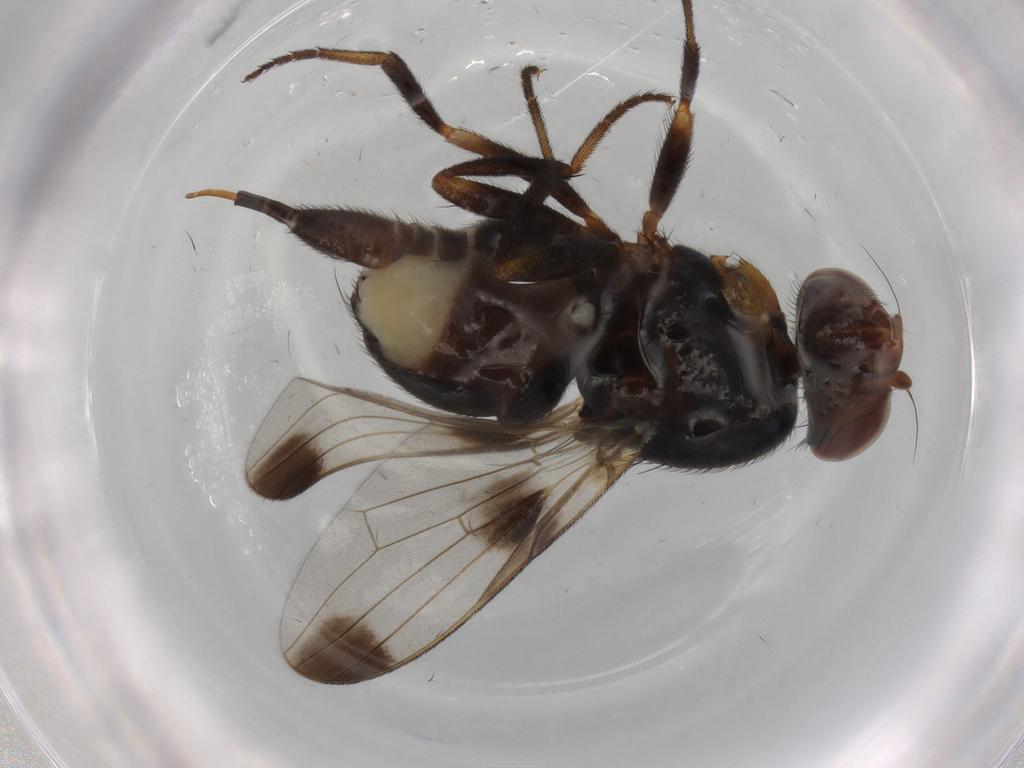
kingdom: Animalia
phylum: Arthropoda
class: Insecta
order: Diptera
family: Ulidiidae
